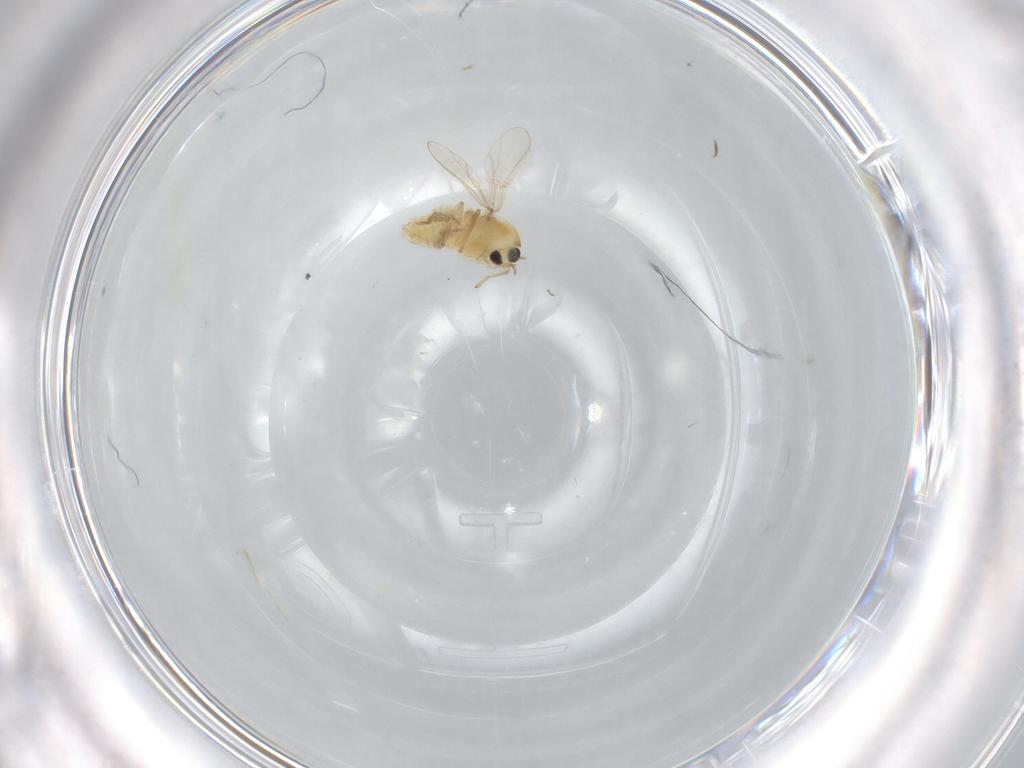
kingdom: Animalia
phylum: Arthropoda
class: Insecta
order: Diptera
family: Chironomidae
